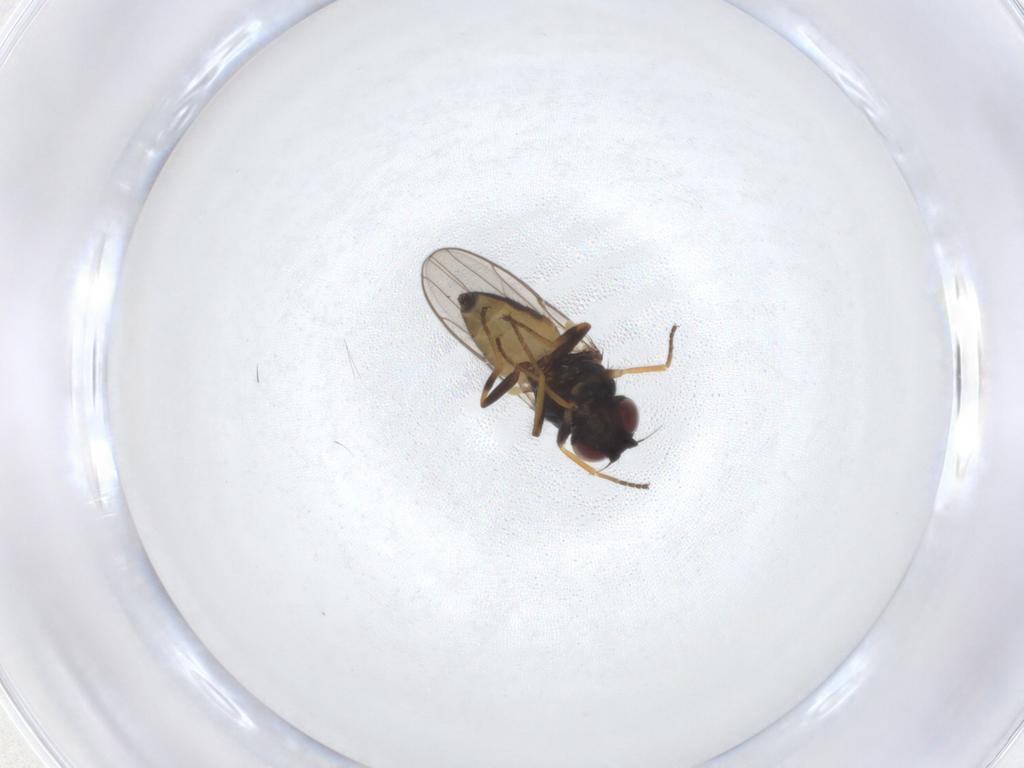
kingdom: Animalia
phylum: Arthropoda
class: Insecta
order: Diptera
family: Chloropidae
